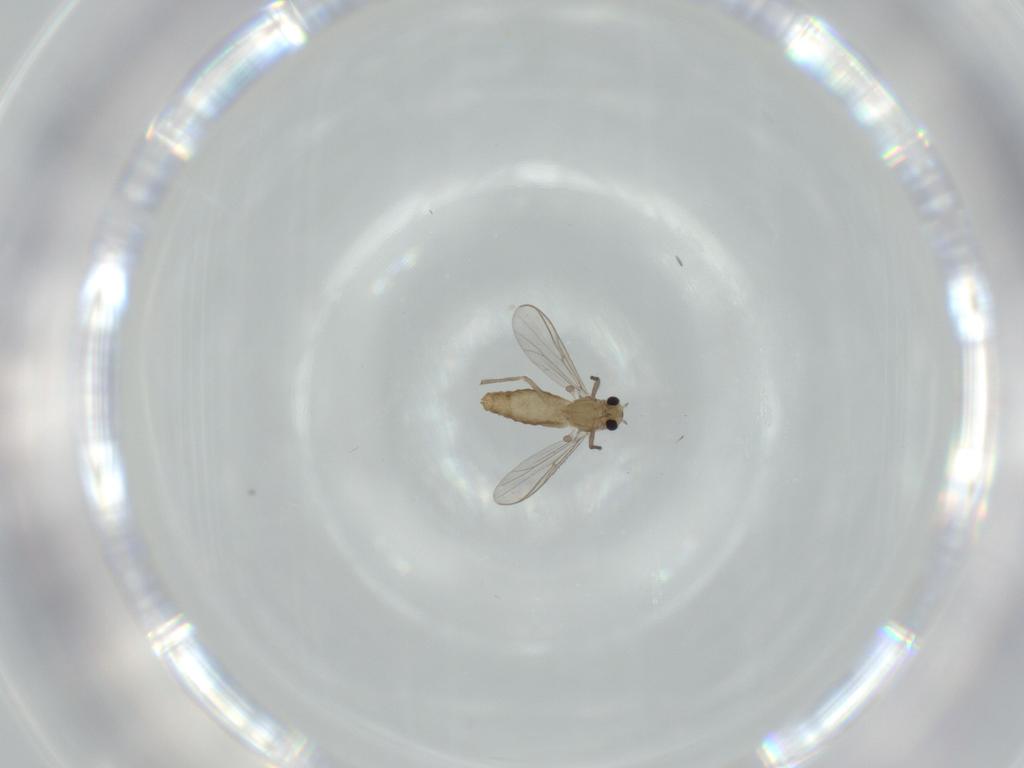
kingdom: Animalia
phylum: Arthropoda
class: Insecta
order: Diptera
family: Chironomidae
